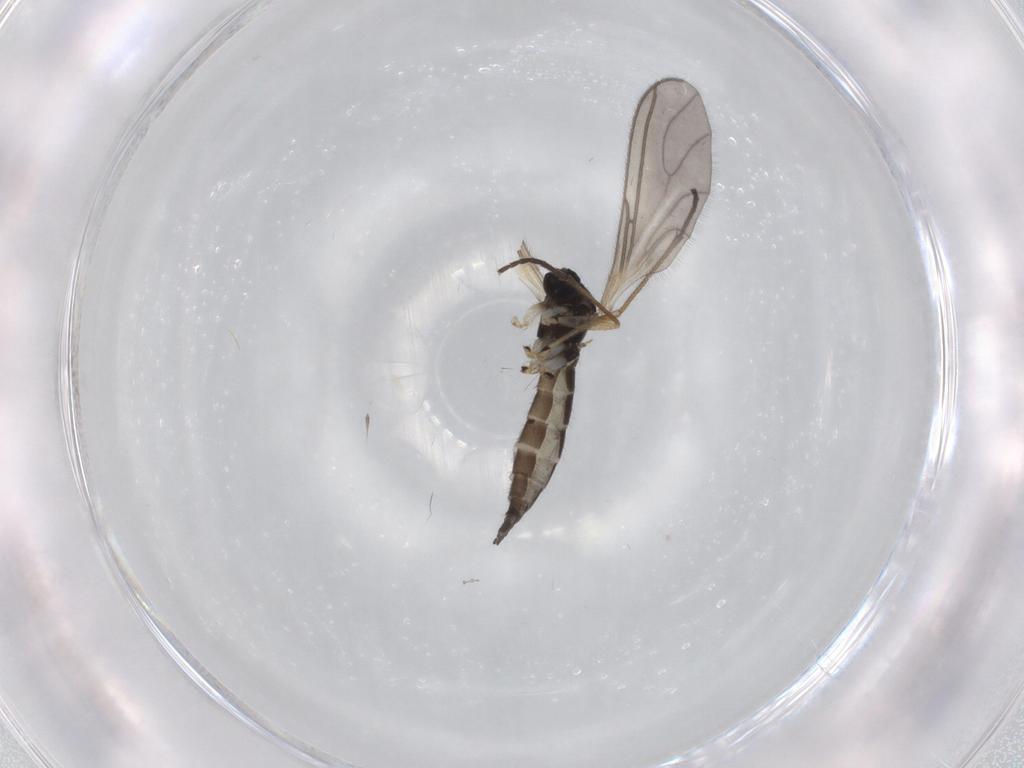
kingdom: Animalia
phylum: Arthropoda
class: Insecta
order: Diptera
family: Sciaridae
